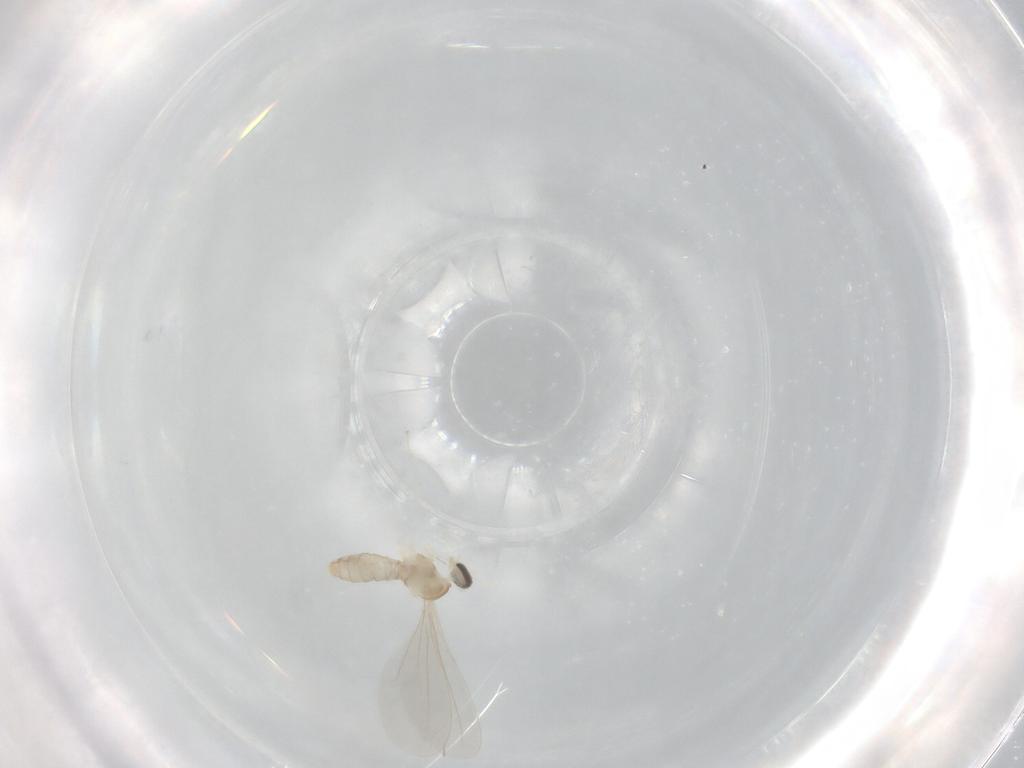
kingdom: Animalia
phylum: Arthropoda
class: Insecta
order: Diptera
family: Cecidomyiidae
